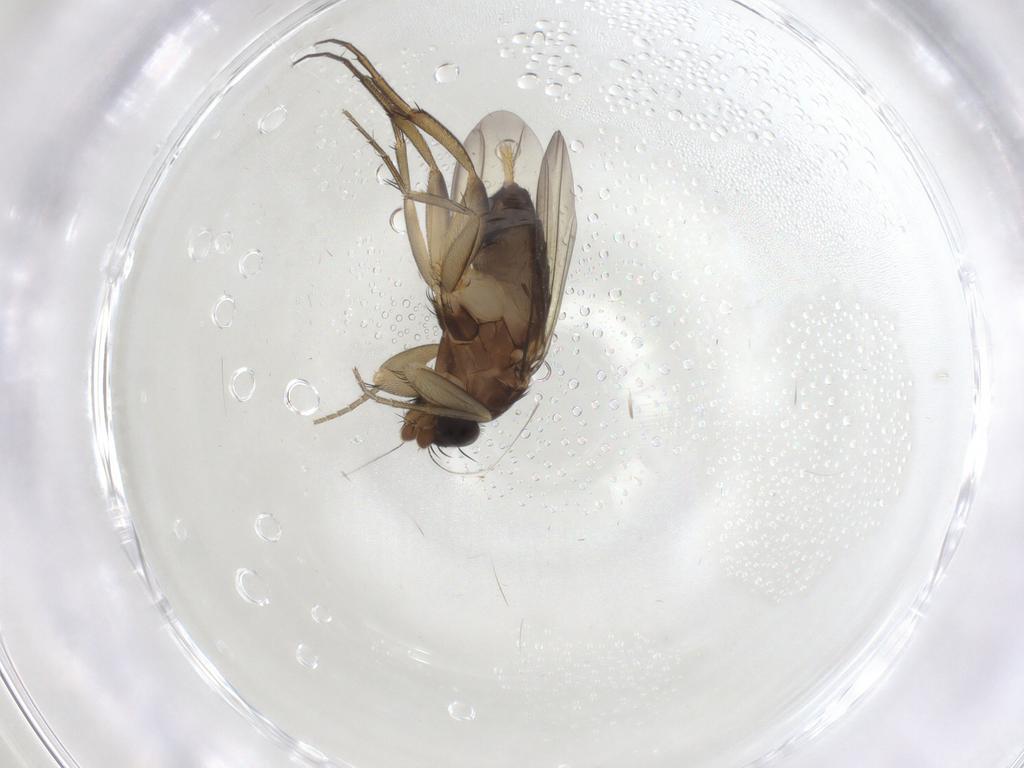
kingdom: Animalia
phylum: Arthropoda
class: Insecta
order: Diptera
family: Phoridae
